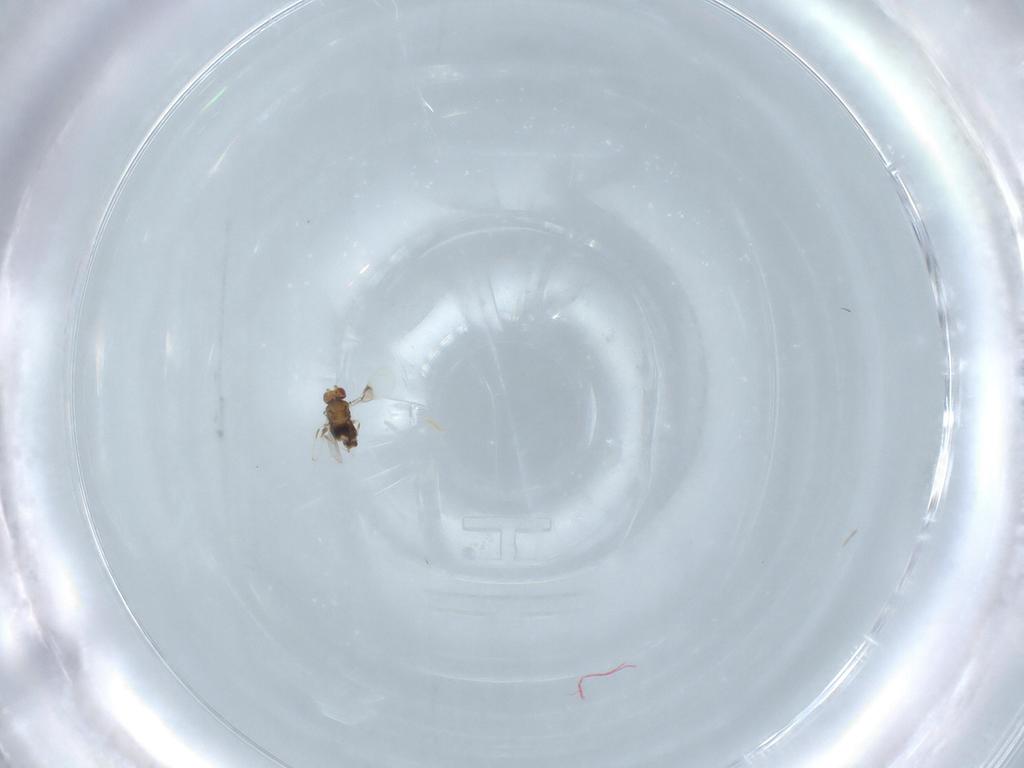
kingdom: Animalia
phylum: Arthropoda
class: Insecta
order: Hymenoptera
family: Trichogrammatidae
